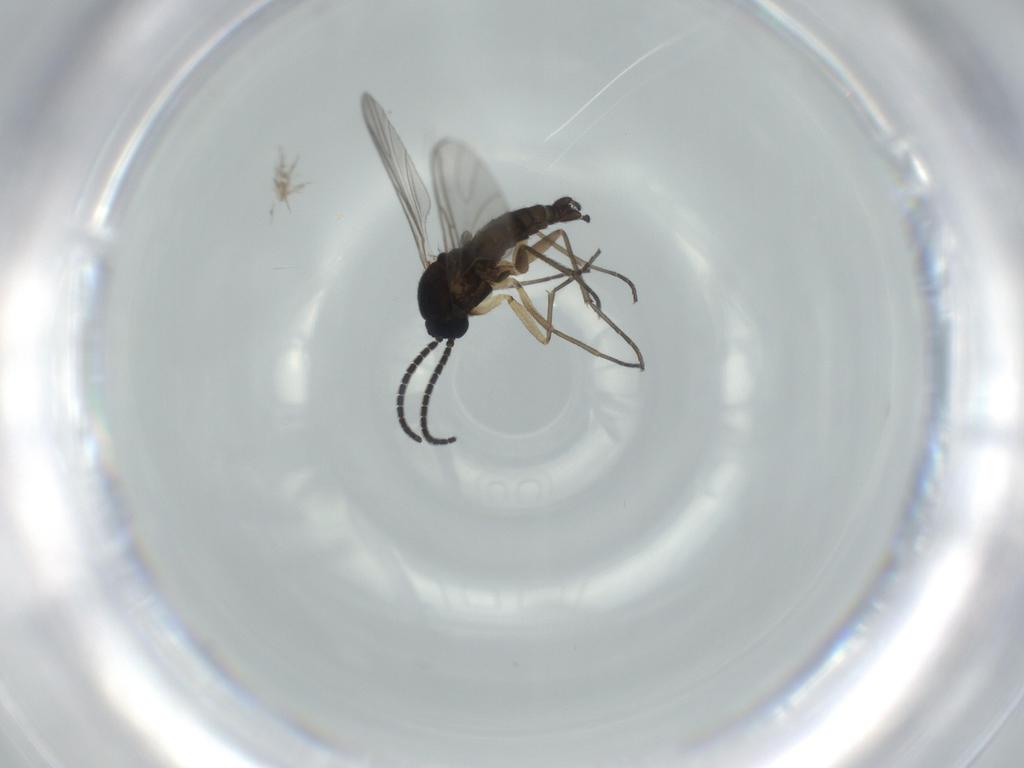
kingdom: Animalia
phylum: Arthropoda
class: Insecta
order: Diptera
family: Sciaridae
